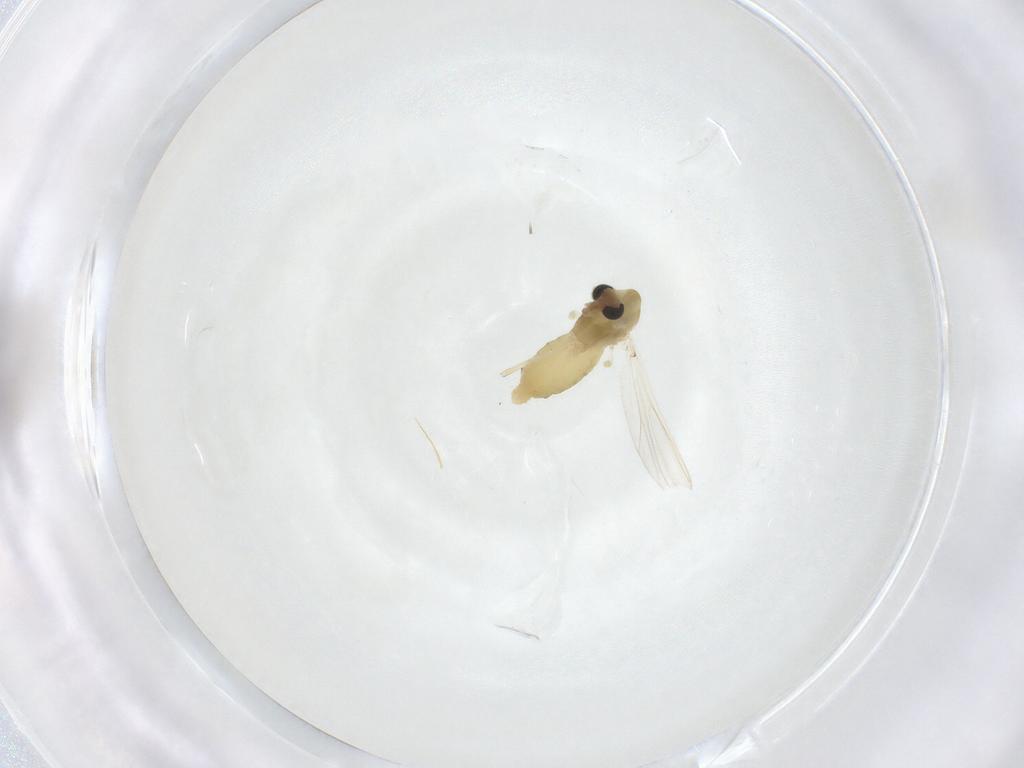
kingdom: Animalia
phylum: Arthropoda
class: Insecta
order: Diptera
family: Chironomidae
